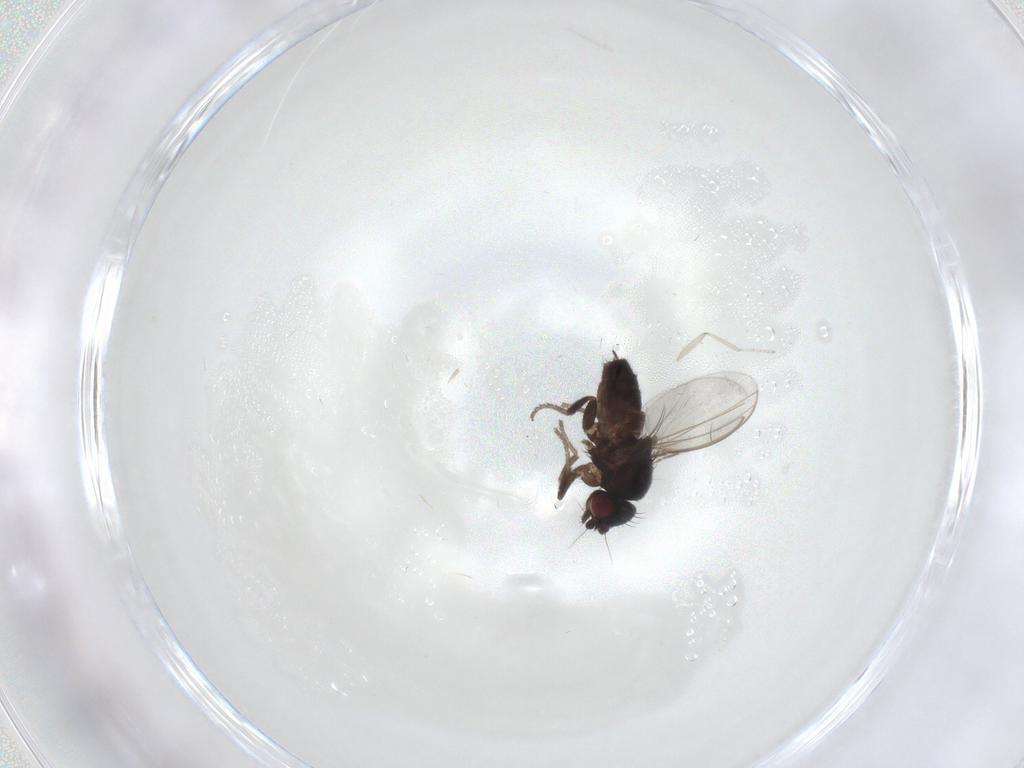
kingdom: Animalia
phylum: Arthropoda
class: Insecta
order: Diptera
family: Milichiidae
